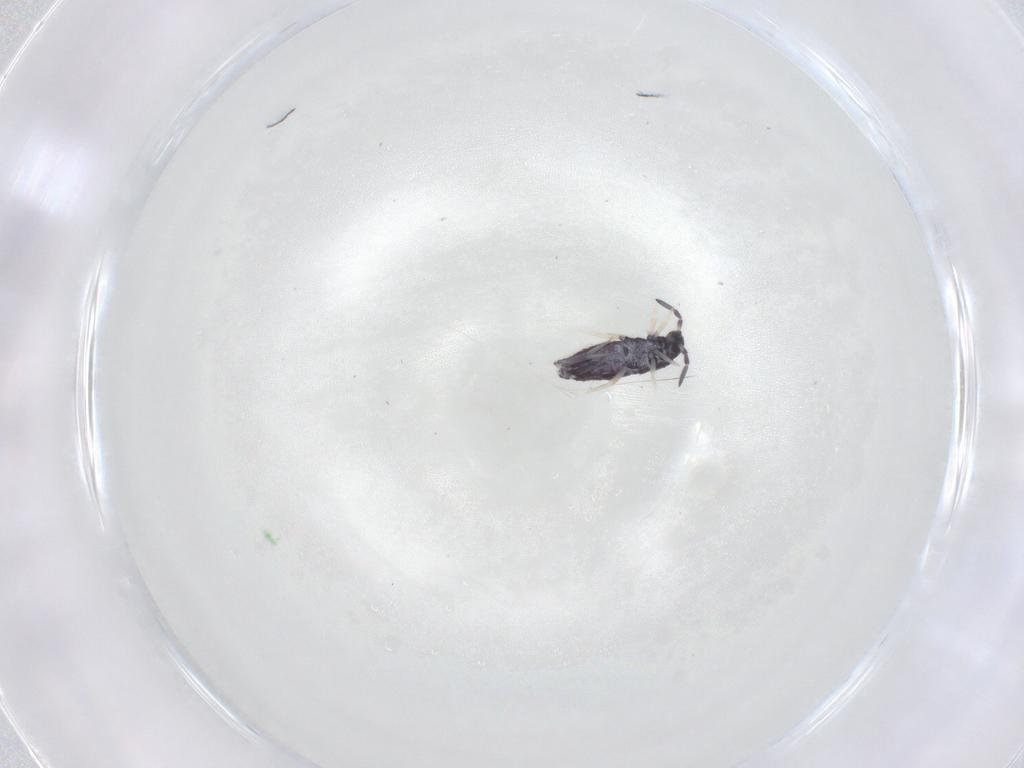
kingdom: Animalia
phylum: Arthropoda
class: Collembola
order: Entomobryomorpha
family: Entomobryidae
